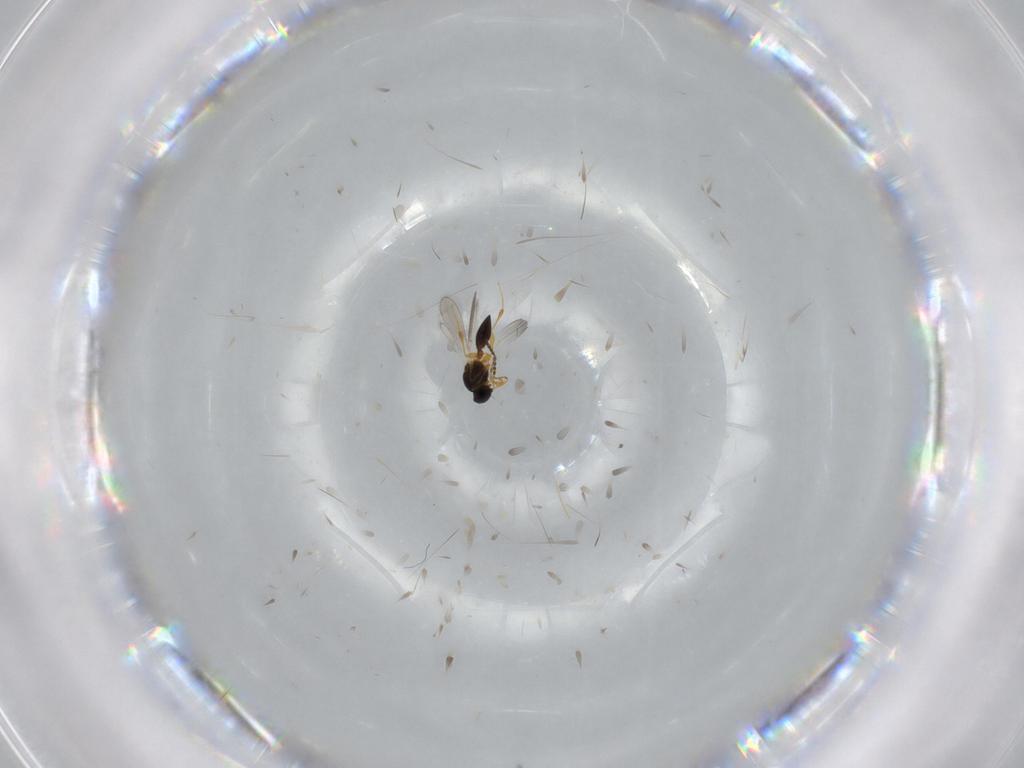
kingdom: Animalia
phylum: Arthropoda
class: Insecta
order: Hymenoptera
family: Platygastridae
